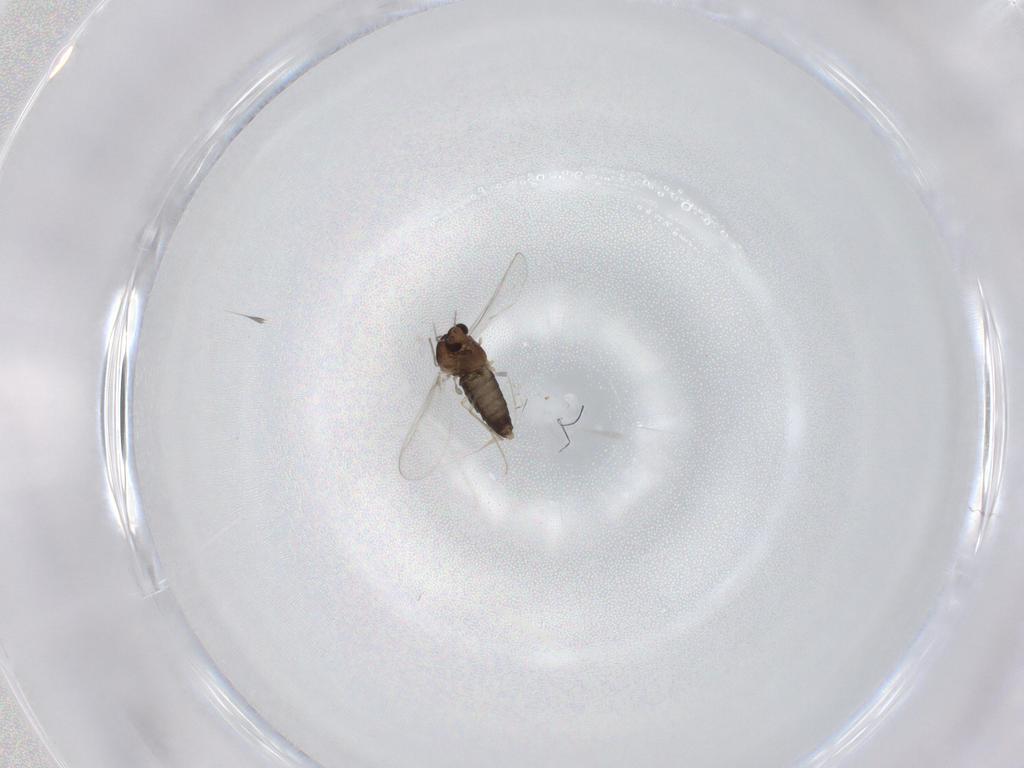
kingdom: Animalia
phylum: Arthropoda
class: Insecta
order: Diptera
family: Chironomidae
